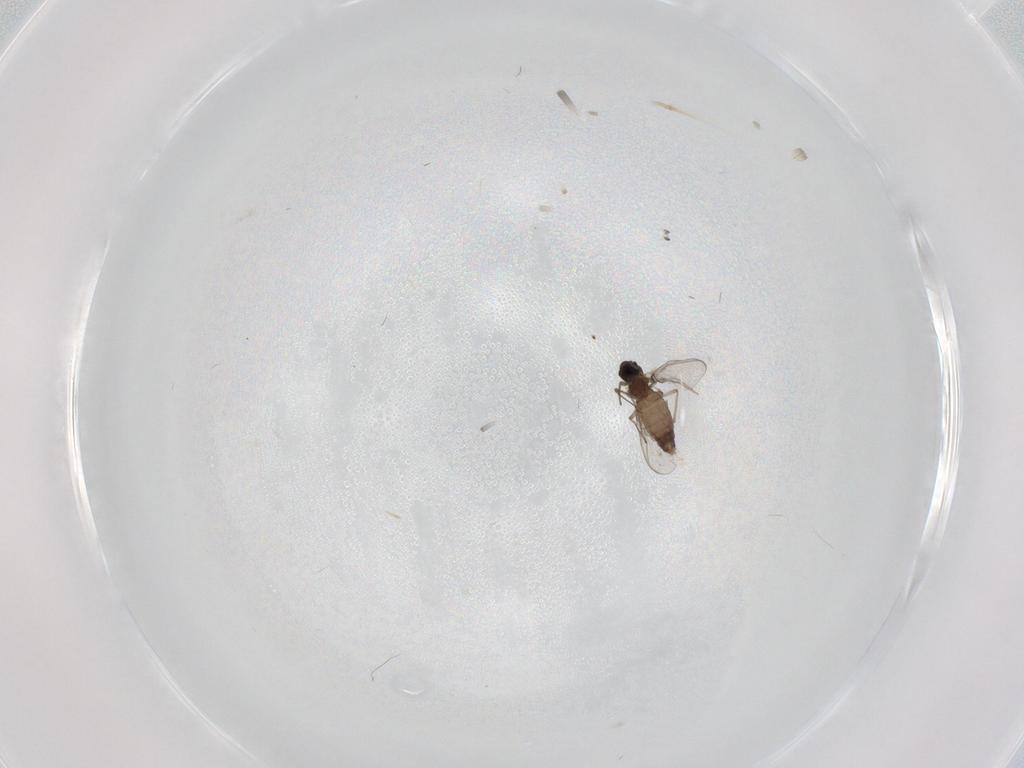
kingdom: Animalia
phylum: Arthropoda
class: Insecta
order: Diptera
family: Chironomidae
